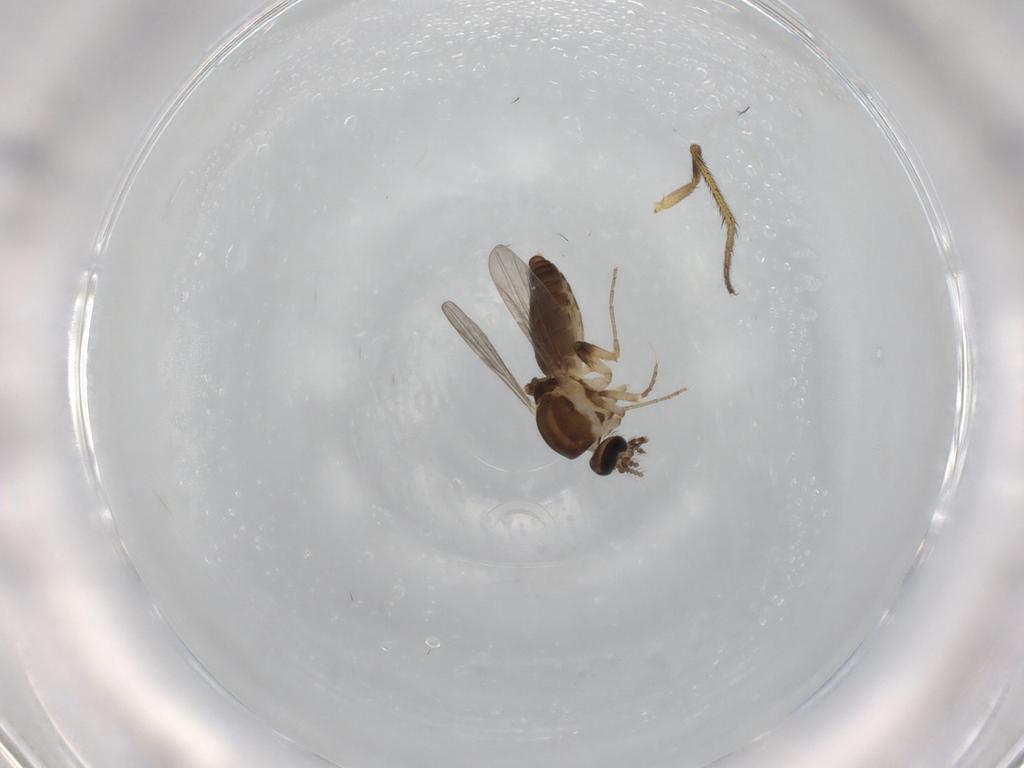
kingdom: Animalia
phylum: Arthropoda
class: Insecta
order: Diptera
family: Ceratopogonidae
